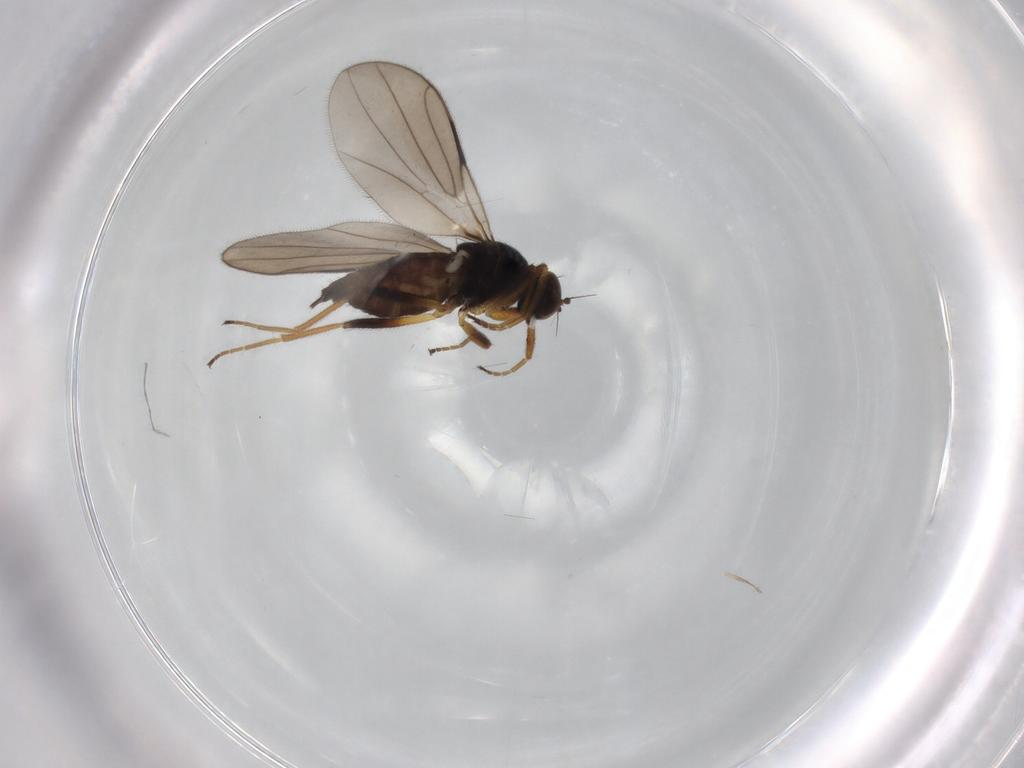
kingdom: Animalia
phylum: Arthropoda
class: Insecta
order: Diptera
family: Hybotidae
